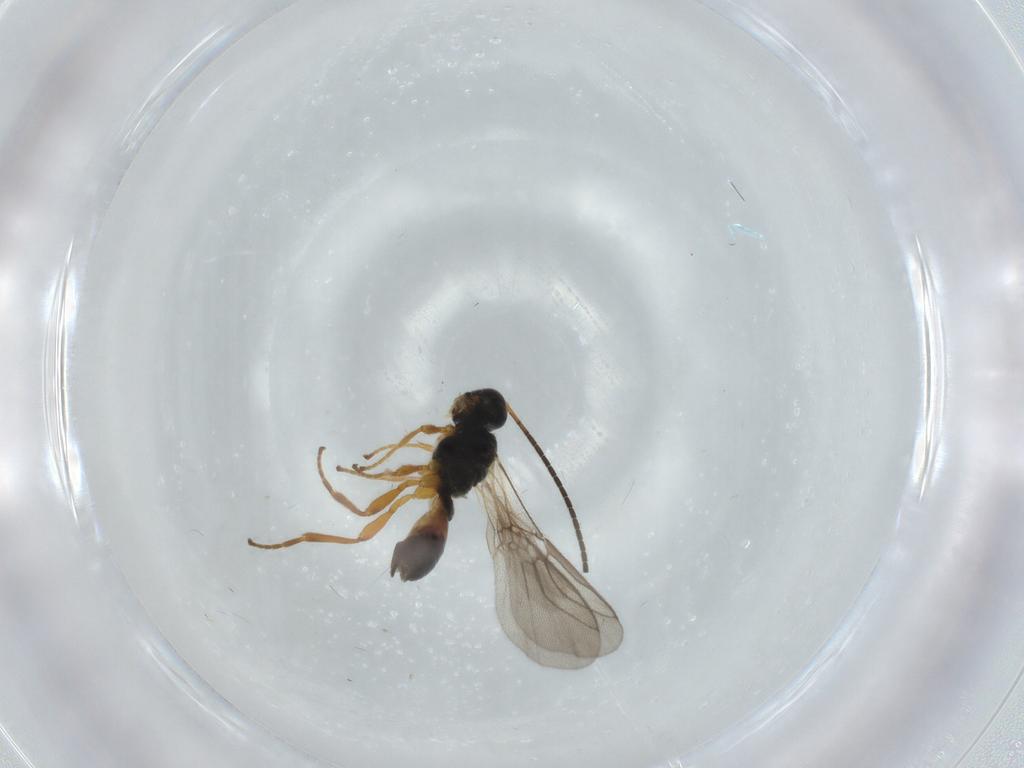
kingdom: Animalia
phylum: Arthropoda
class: Insecta
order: Hymenoptera
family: Braconidae
